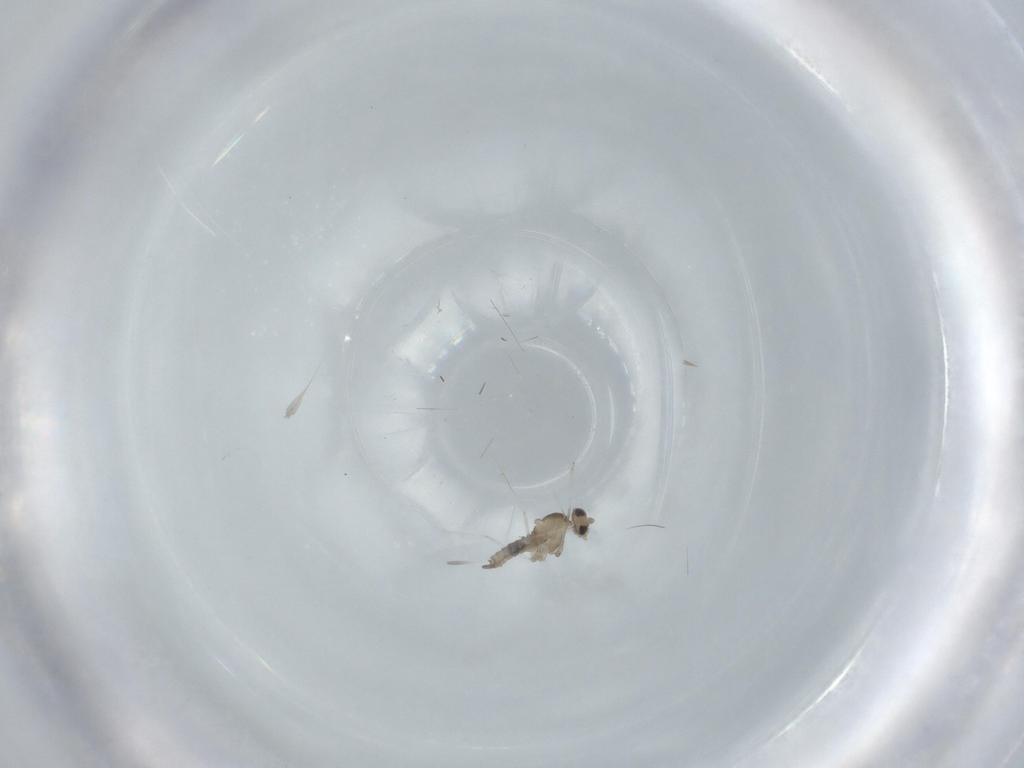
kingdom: Animalia
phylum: Arthropoda
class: Insecta
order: Diptera
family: Cecidomyiidae
